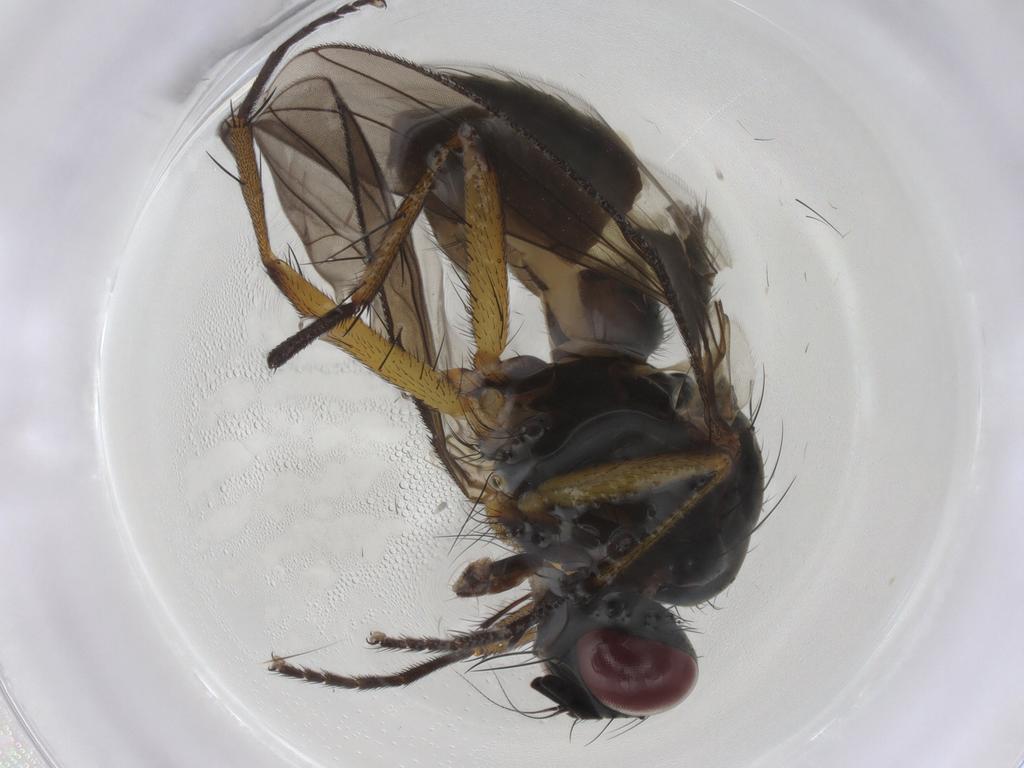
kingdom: Animalia
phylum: Arthropoda
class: Insecta
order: Diptera
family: Muscidae
